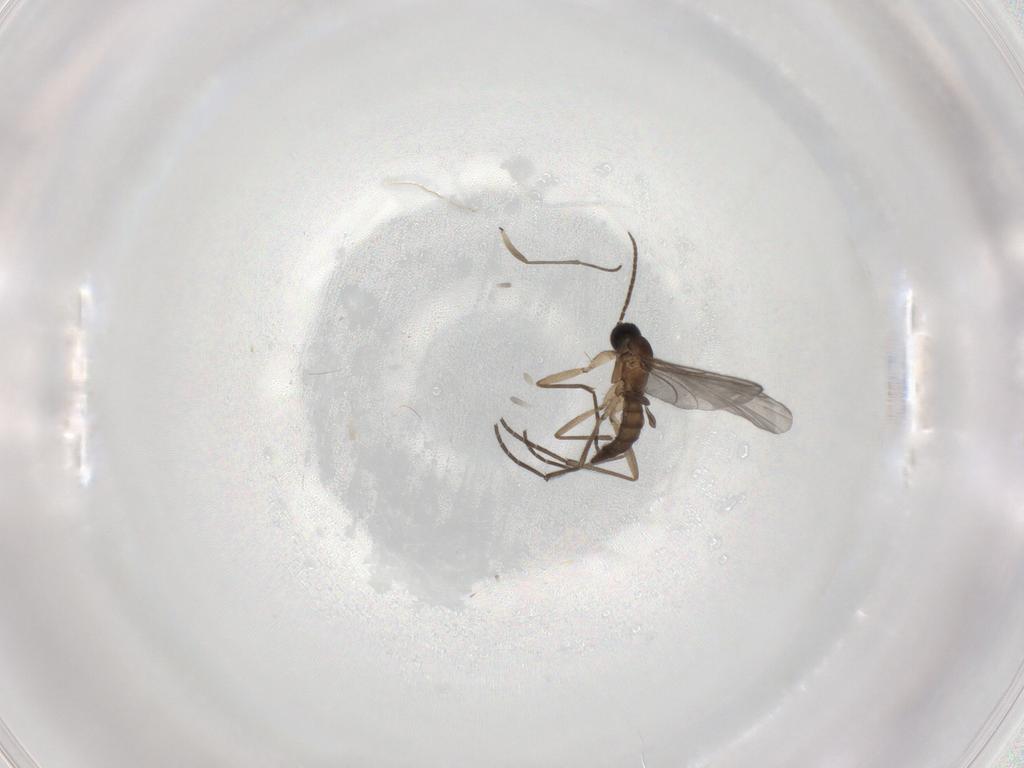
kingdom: Animalia
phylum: Arthropoda
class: Insecta
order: Diptera
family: Sciaridae
